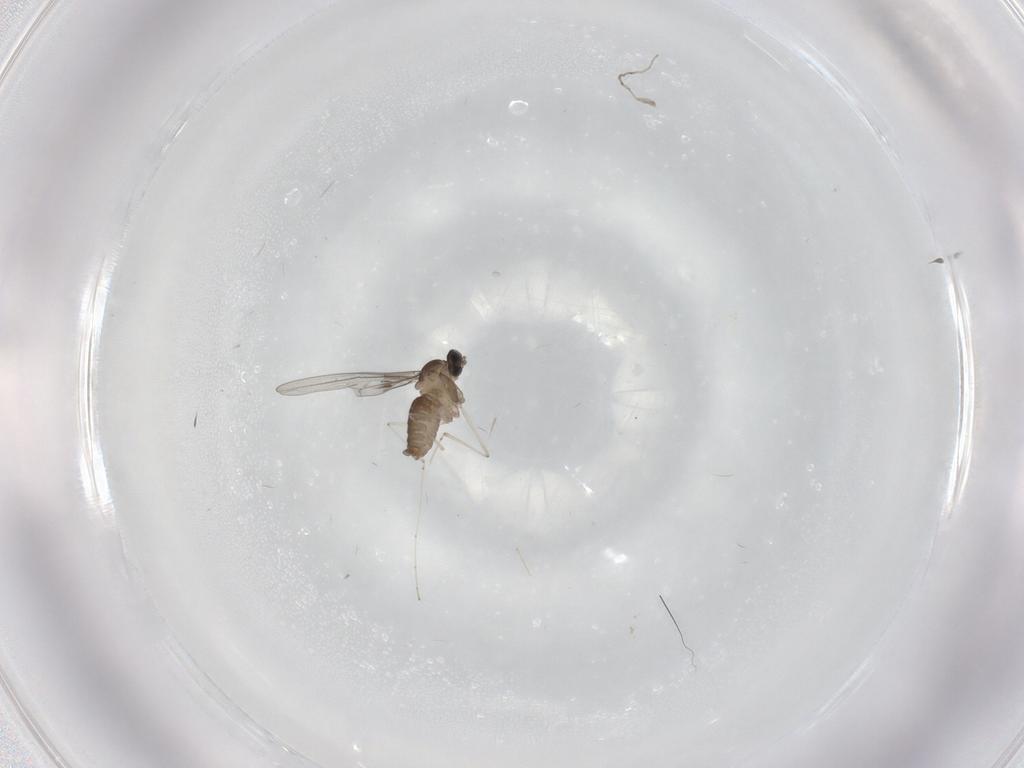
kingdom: Animalia
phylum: Arthropoda
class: Insecta
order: Diptera
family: Cecidomyiidae
